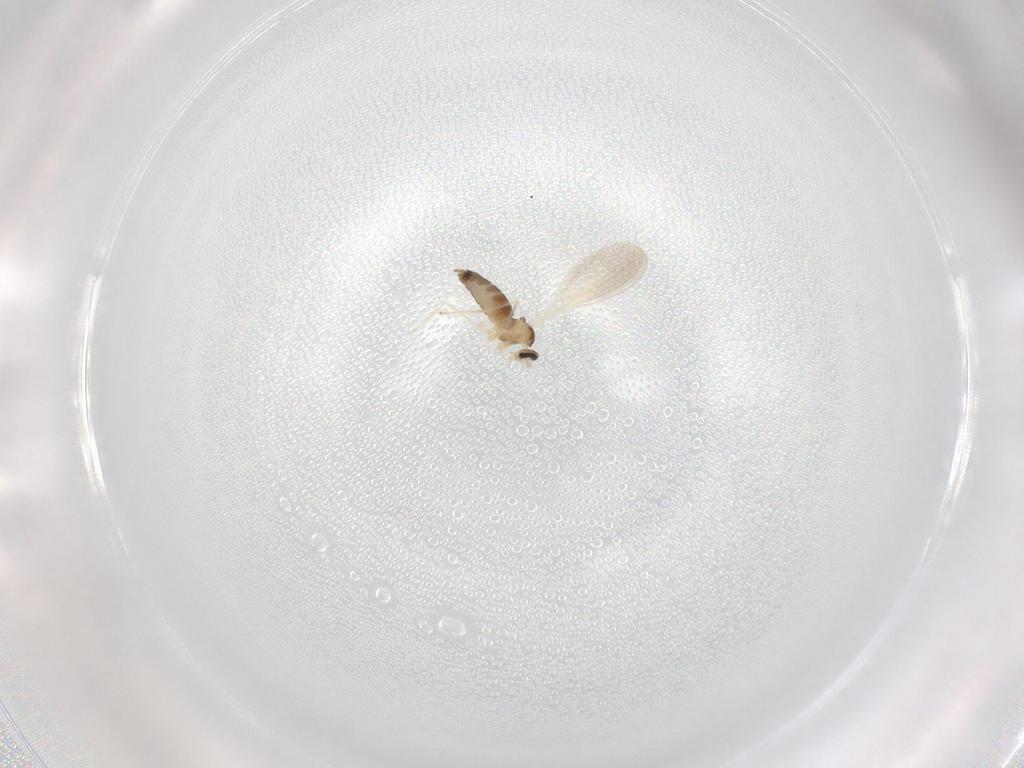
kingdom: Animalia
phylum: Arthropoda
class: Insecta
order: Diptera
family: Cecidomyiidae
